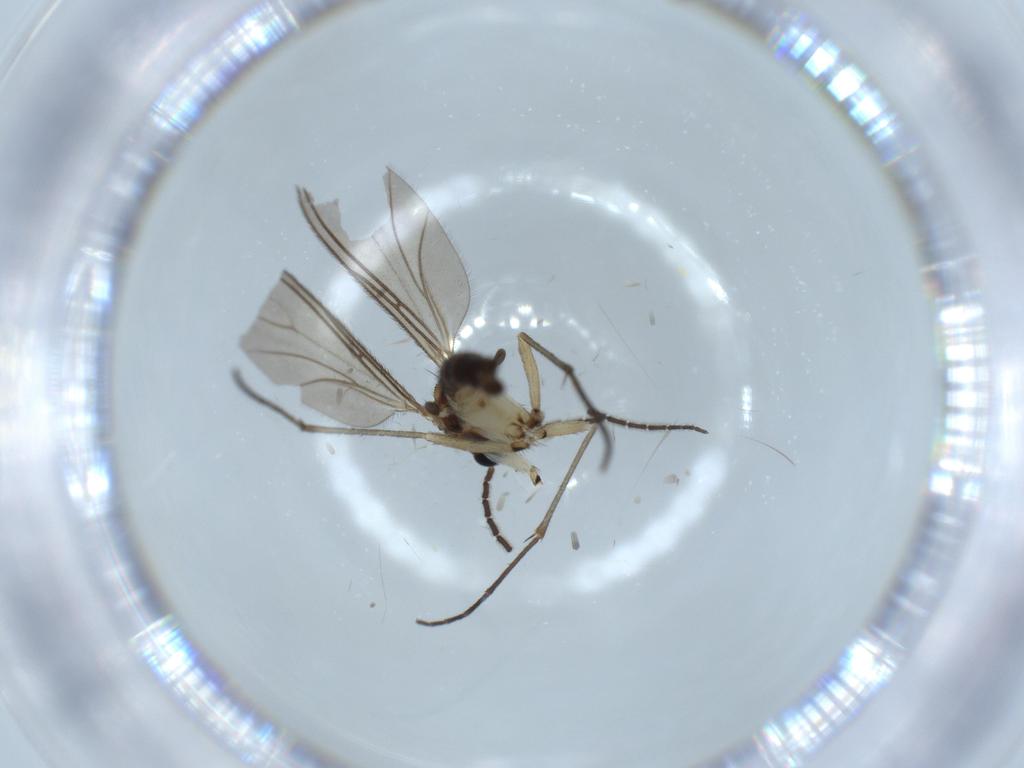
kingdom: Animalia
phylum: Arthropoda
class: Insecta
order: Diptera
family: Sciaridae
